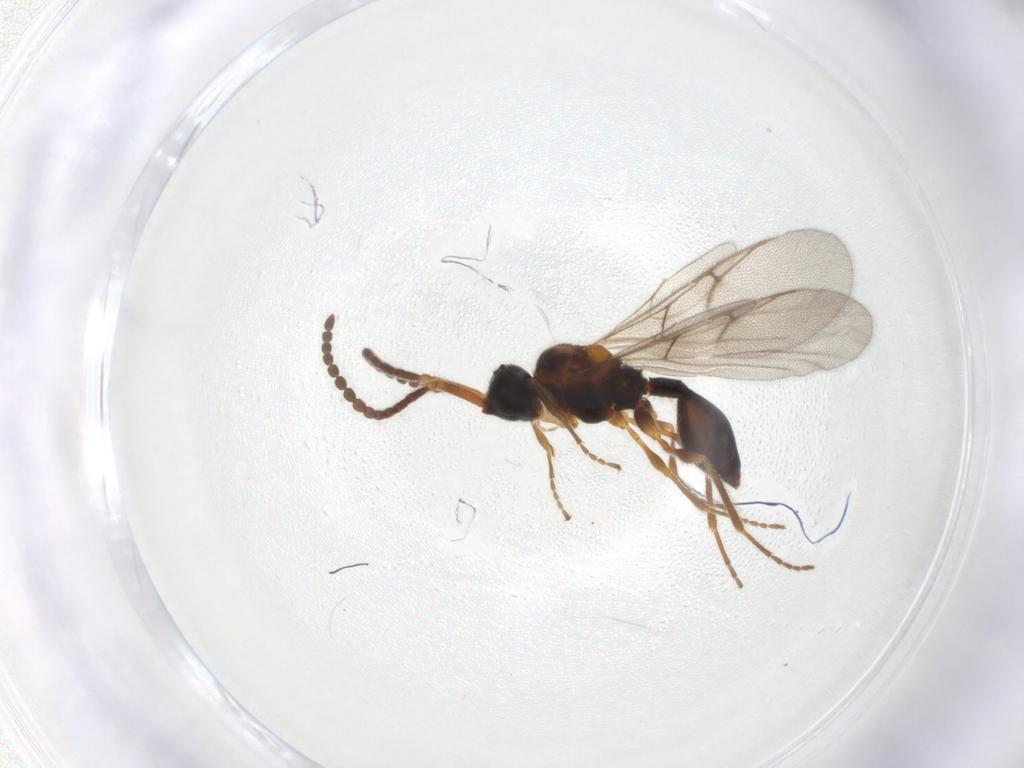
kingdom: Animalia
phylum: Arthropoda
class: Insecta
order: Hymenoptera
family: Diapriidae
